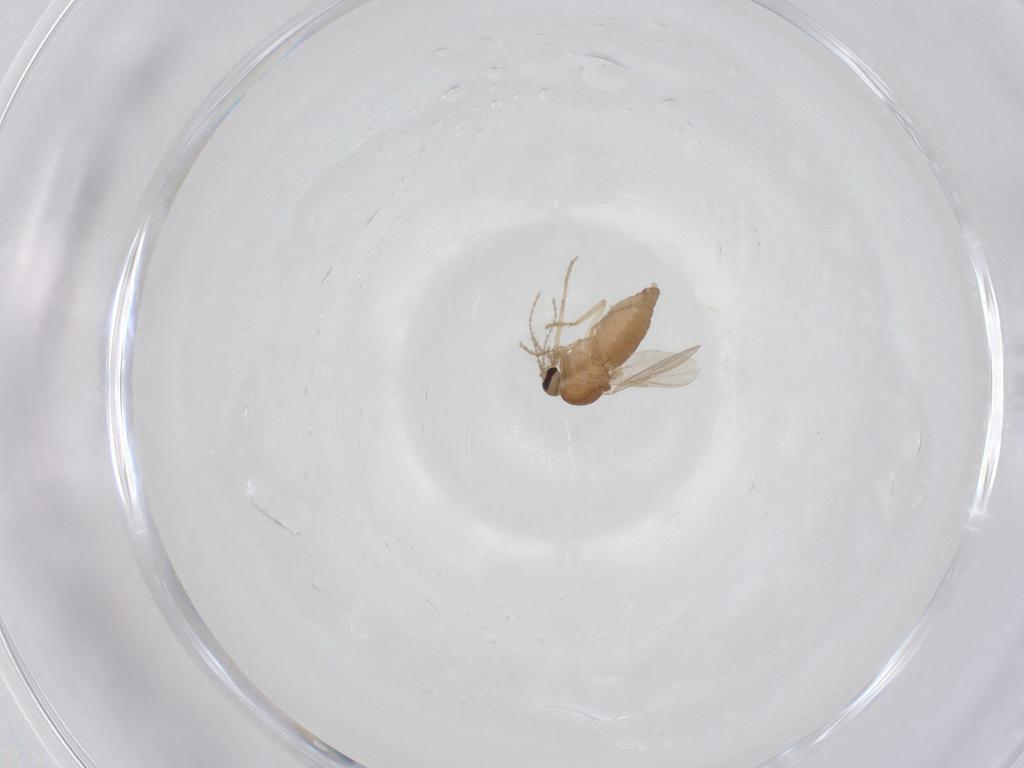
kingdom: Animalia
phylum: Arthropoda
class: Insecta
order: Diptera
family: Ceratopogonidae
